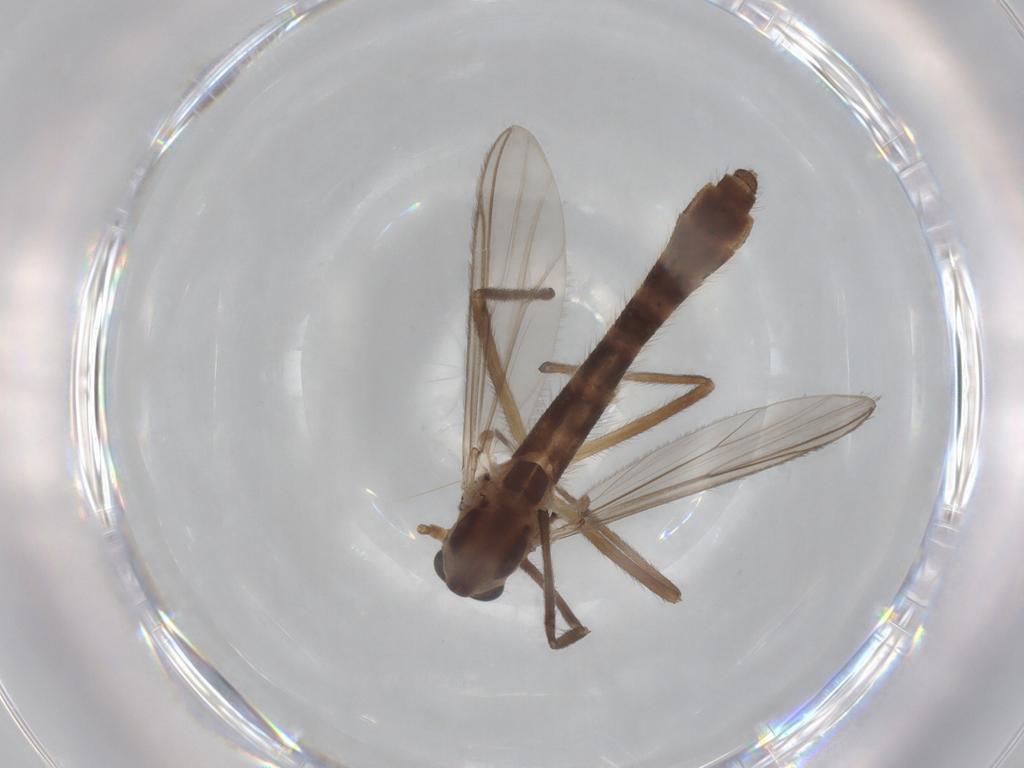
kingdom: Animalia
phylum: Arthropoda
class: Insecta
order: Diptera
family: Chironomidae
